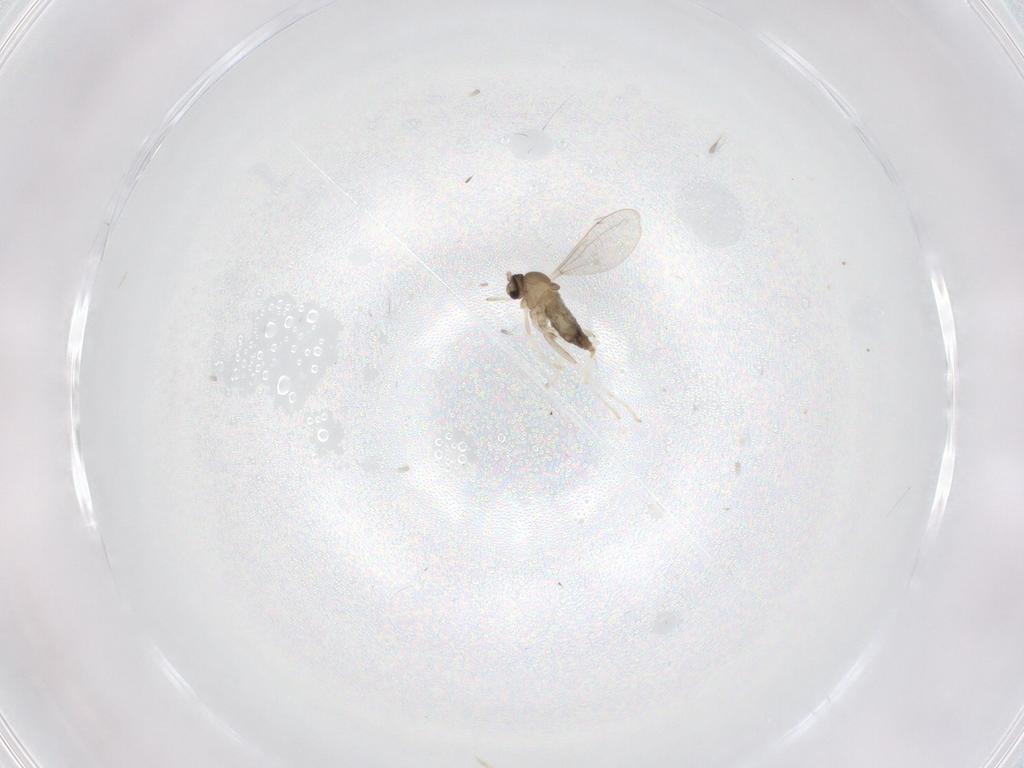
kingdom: Animalia
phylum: Arthropoda
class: Insecta
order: Diptera
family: Cecidomyiidae
